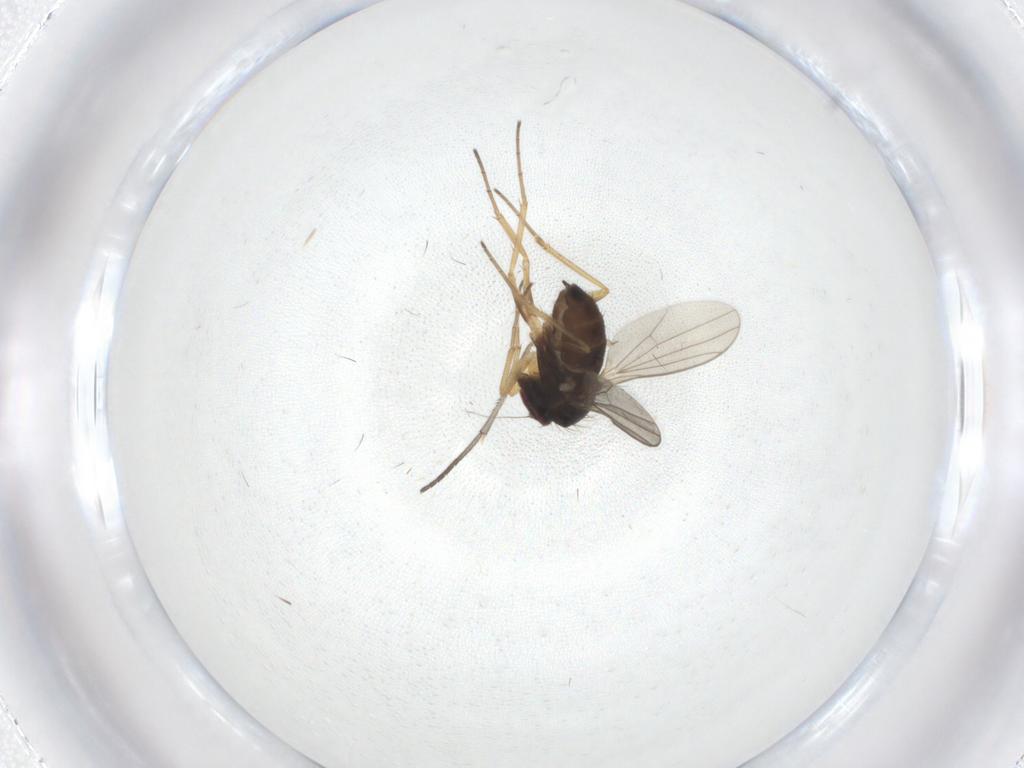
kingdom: Animalia
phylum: Arthropoda
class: Insecta
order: Diptera
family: Dolichopodidae
